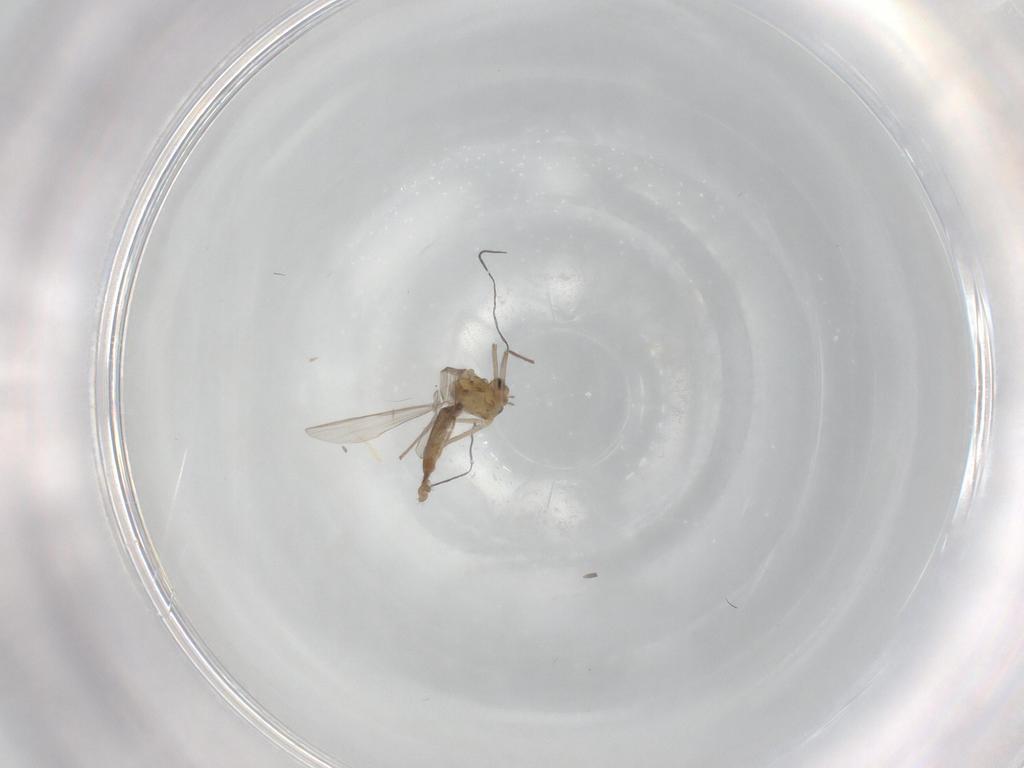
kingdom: Animalia
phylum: Arthropoda
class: Insecta
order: Diptera
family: Chironomidae
